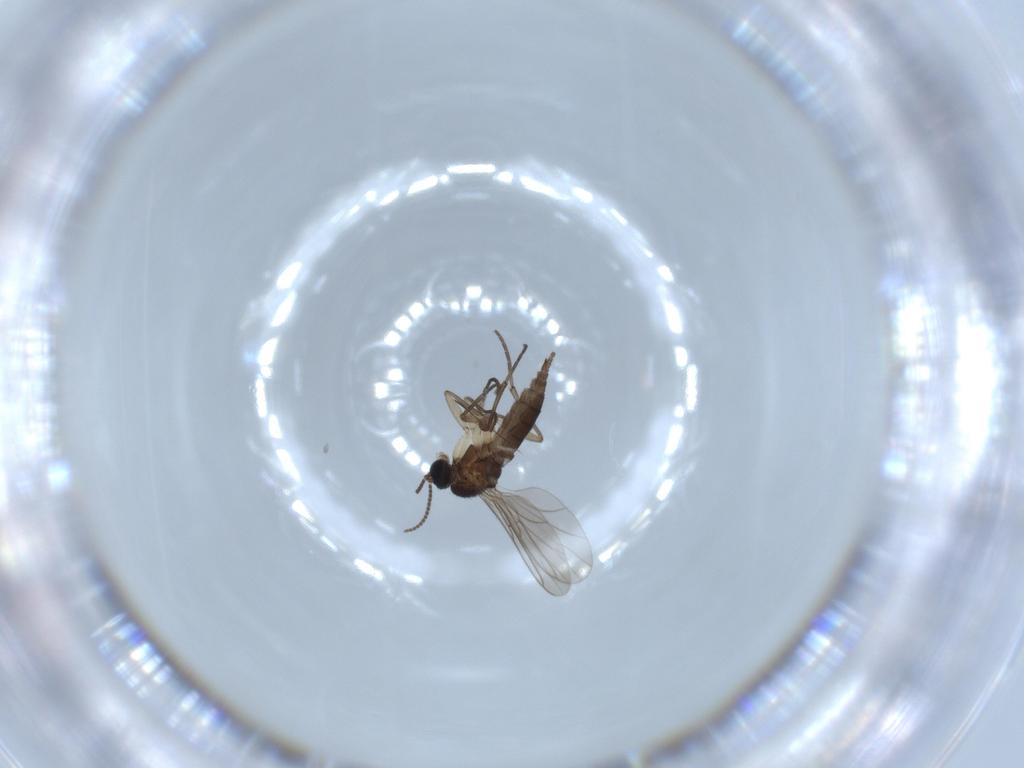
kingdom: Animalia
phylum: Arthropoda
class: Insecta
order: Diptera
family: Sciaridae
